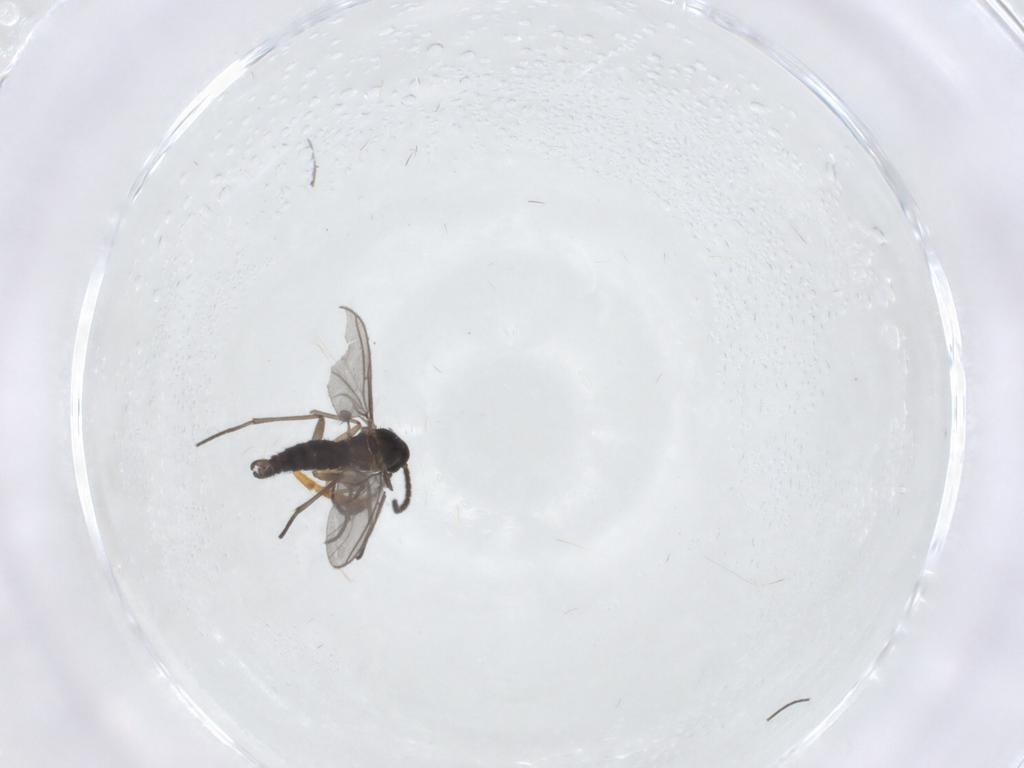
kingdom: Animalia
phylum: Arthropoda
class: Insecta
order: Diptera
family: Sciaridae
